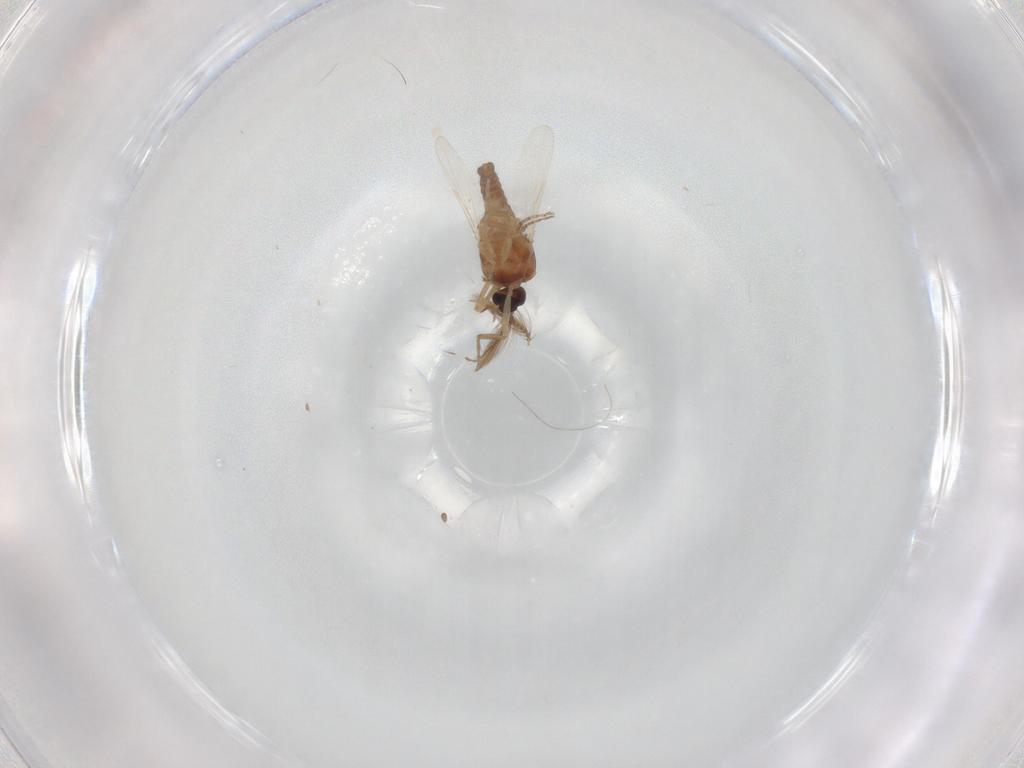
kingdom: Animalia
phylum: Arthropoda
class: Insecta
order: Diptera
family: Ceratopogonidae
